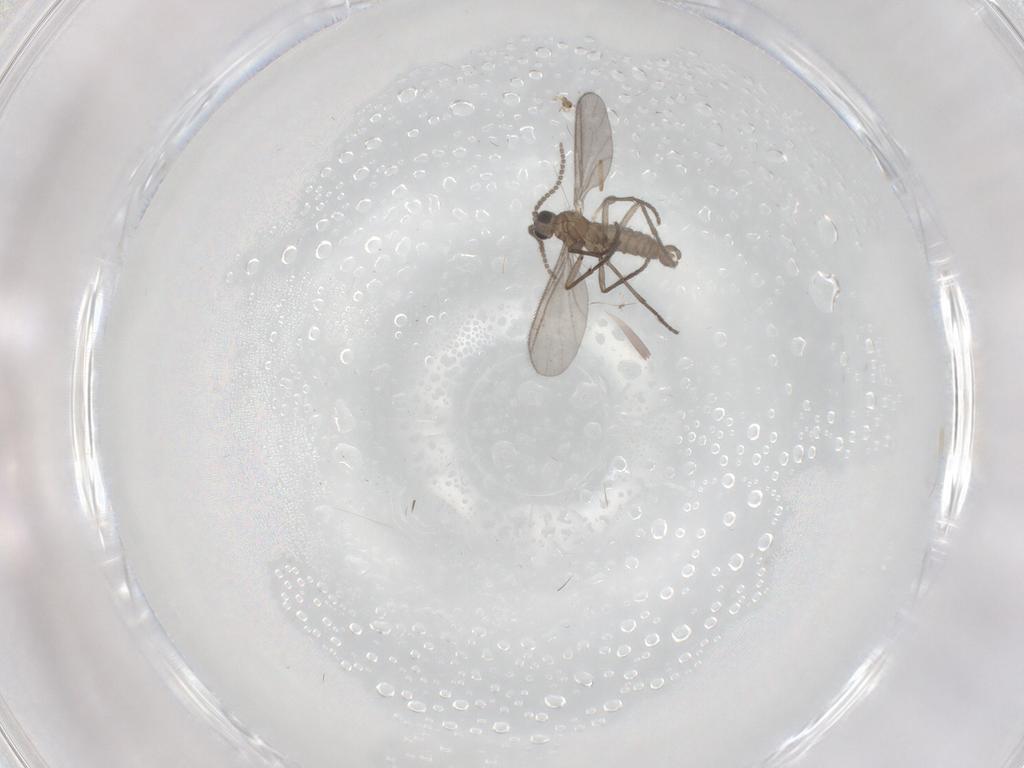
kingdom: Animalia
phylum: Arthropoda
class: Insecta
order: Diptera
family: Sciaridae
